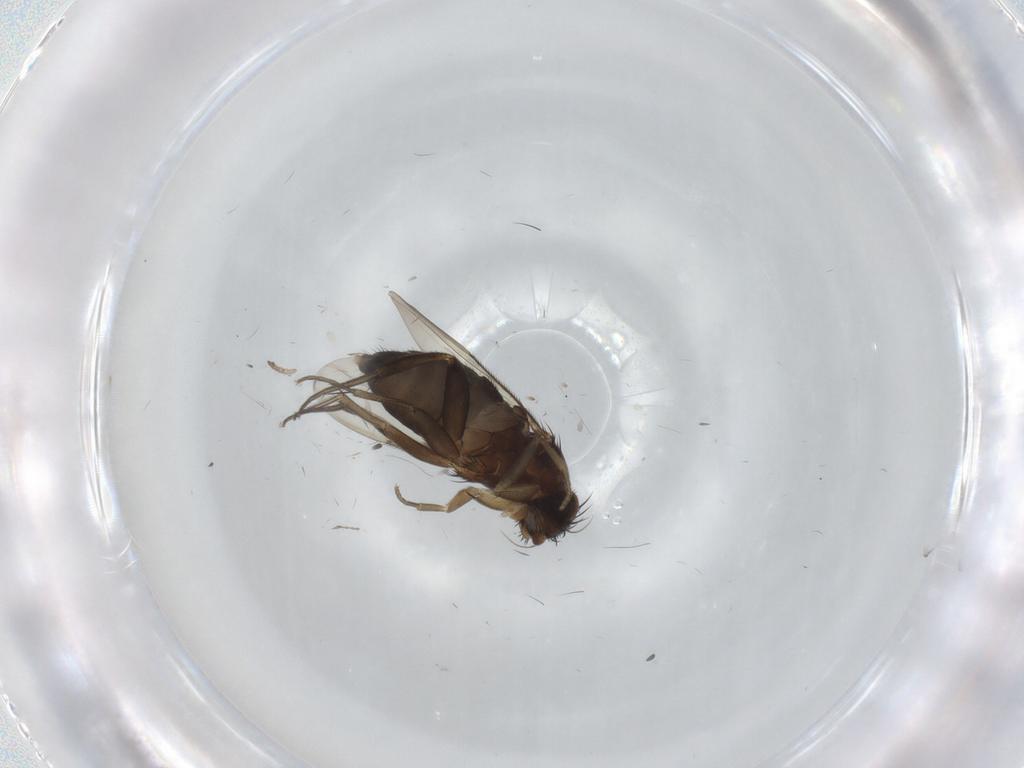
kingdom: Animalia
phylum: Arthropoda
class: Insecta
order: Diptera
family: Phoridae
